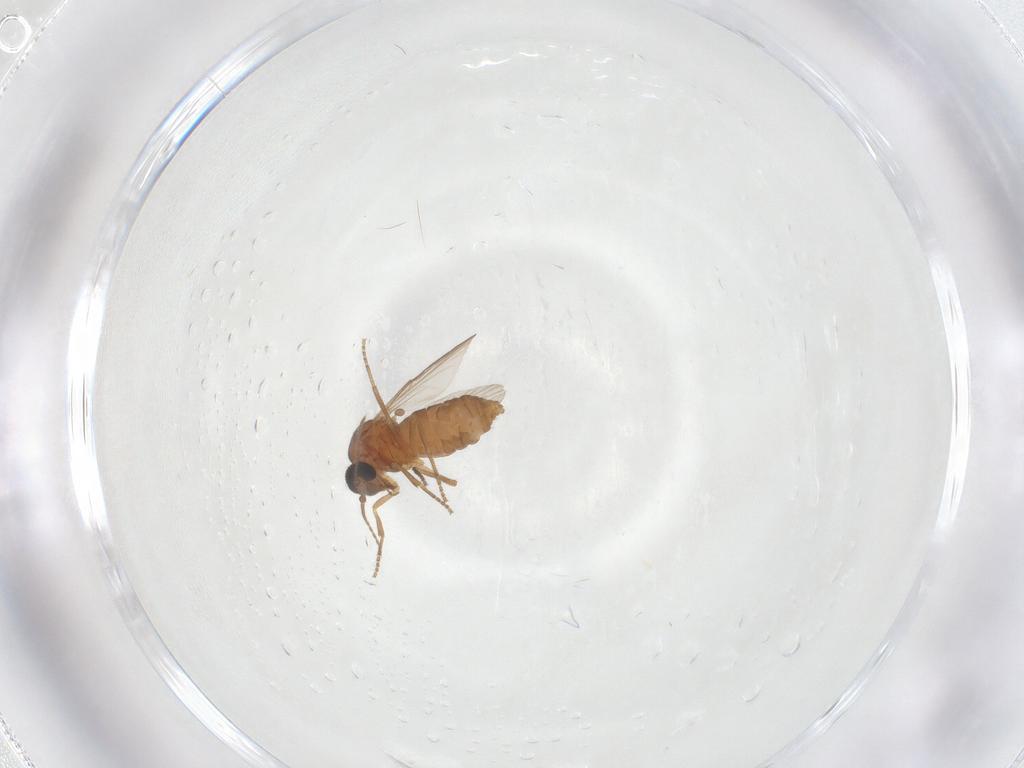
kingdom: Animalia
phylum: Arthropoda
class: Insecta
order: Diptera
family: Ceratopogonidae
